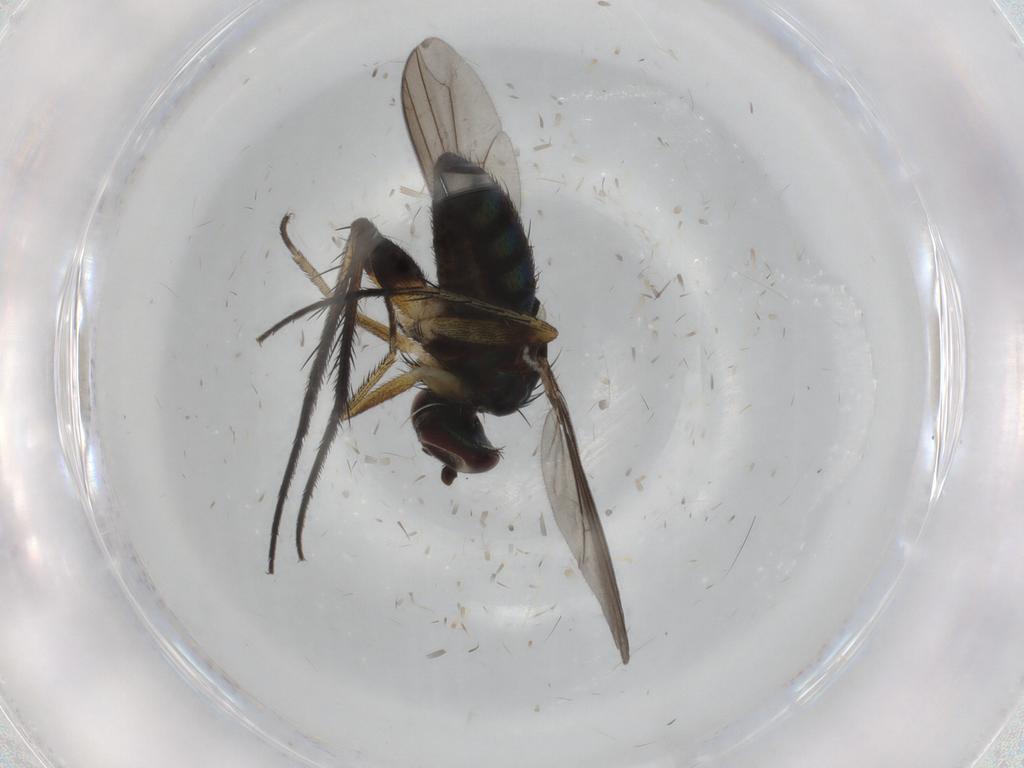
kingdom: Animalia
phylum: Arthropoda
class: Insecta
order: Diptera
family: Dolichopodidae
